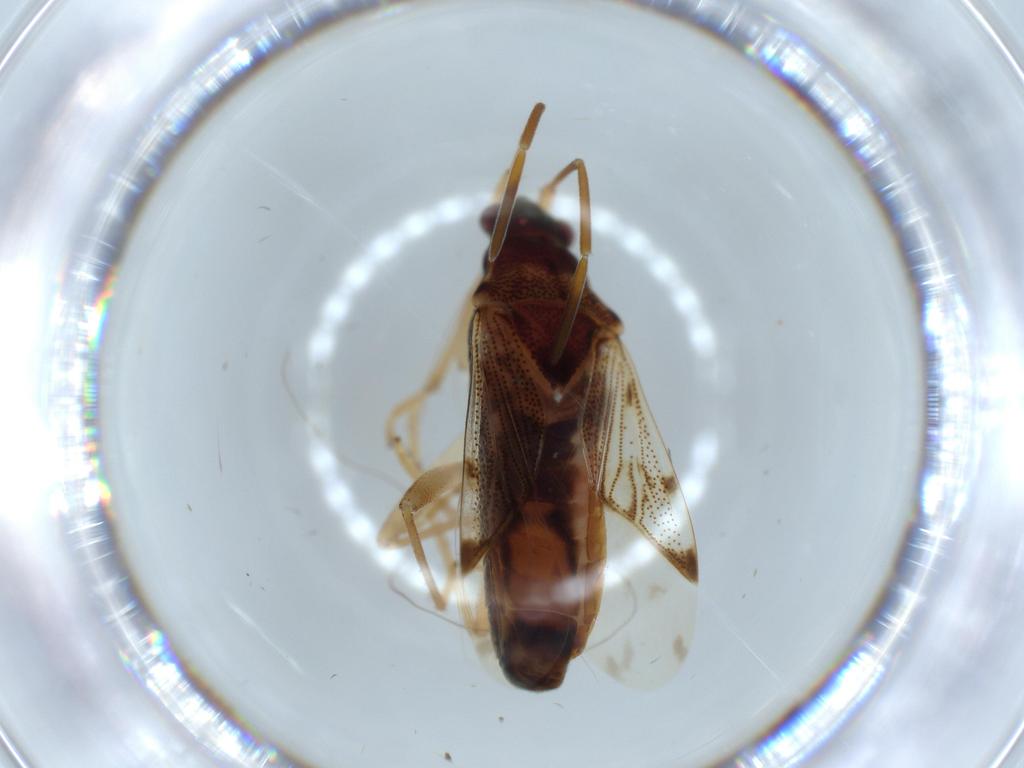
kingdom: Animalia
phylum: Arthropoda
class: Insecta
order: Hemiptera
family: Rhyparochromidae
